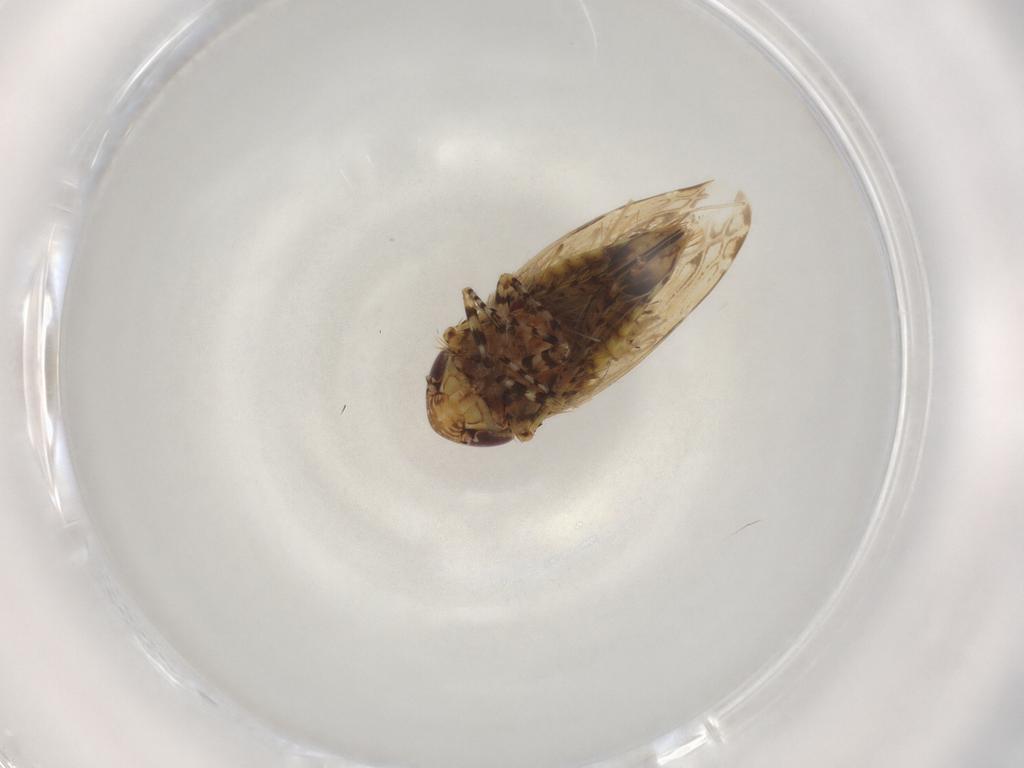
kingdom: Animalia
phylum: Arthropoda
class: Insecta
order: Hemiptera
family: Cicadellidae
